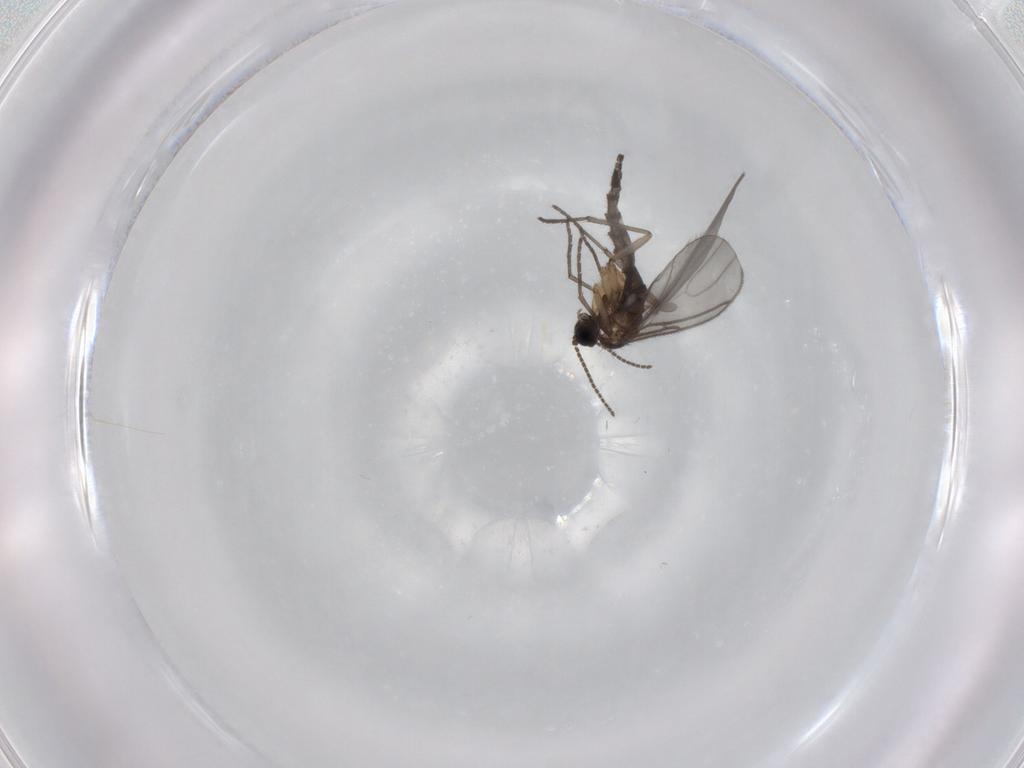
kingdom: Animalia
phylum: Arthropoda
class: Insecta
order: Diptera
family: Sciaridae
